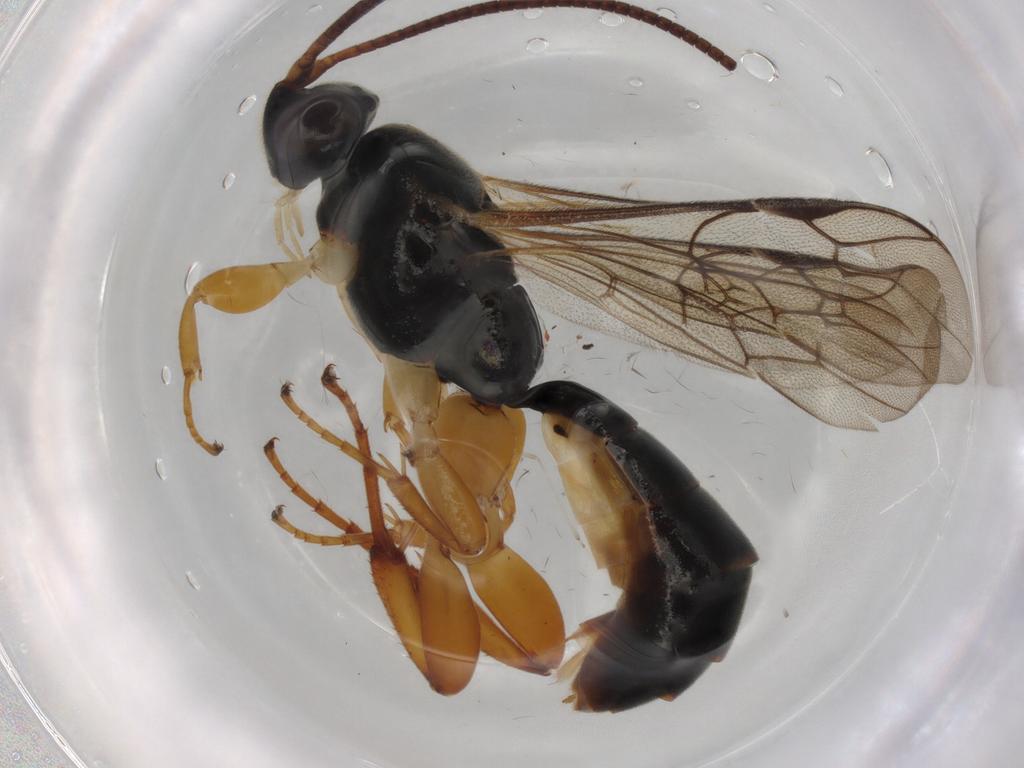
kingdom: Animalia
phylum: Arthropoda
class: Insecta
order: Hymenoptera
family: Ichneumonidae
